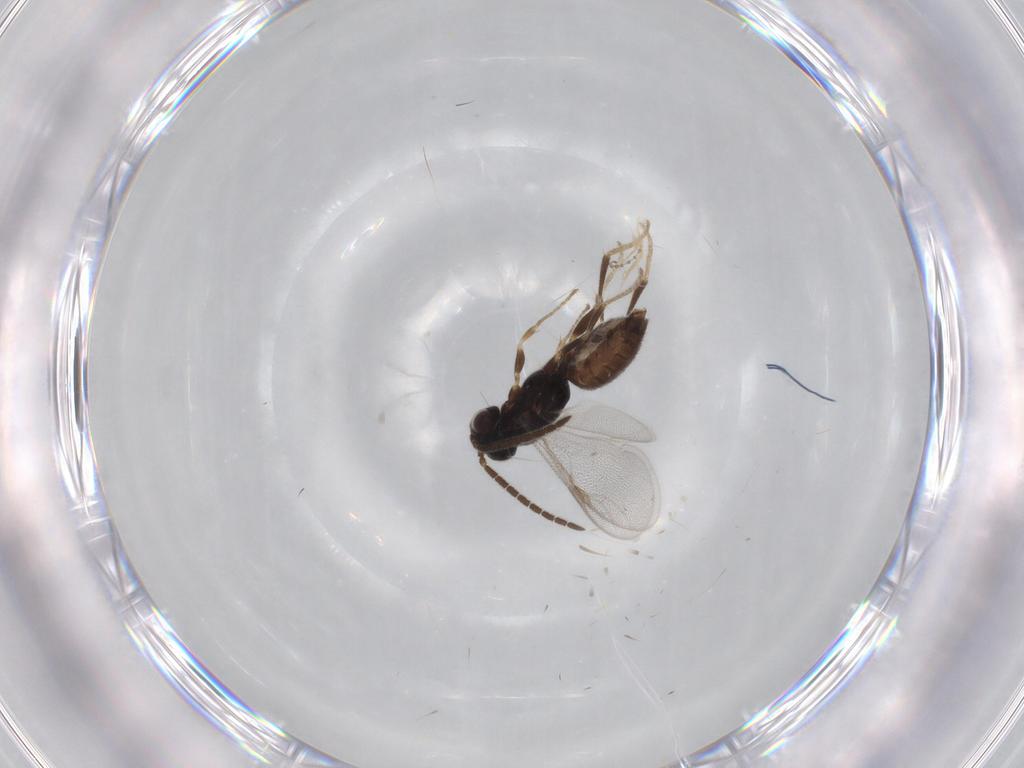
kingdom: Animalia
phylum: Arthropoda
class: Insecta
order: Hymenoptera
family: Dryinidae
